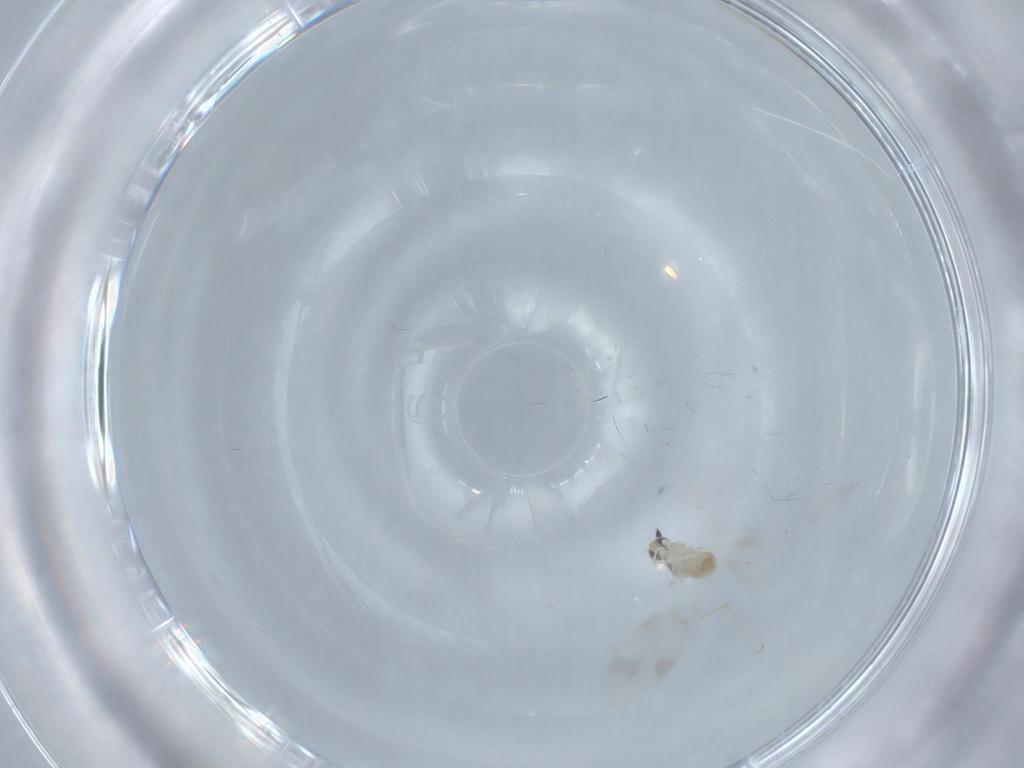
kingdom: Animalia
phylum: Arthropoda
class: Insecta
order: Diptera
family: Cecidomyiidae
